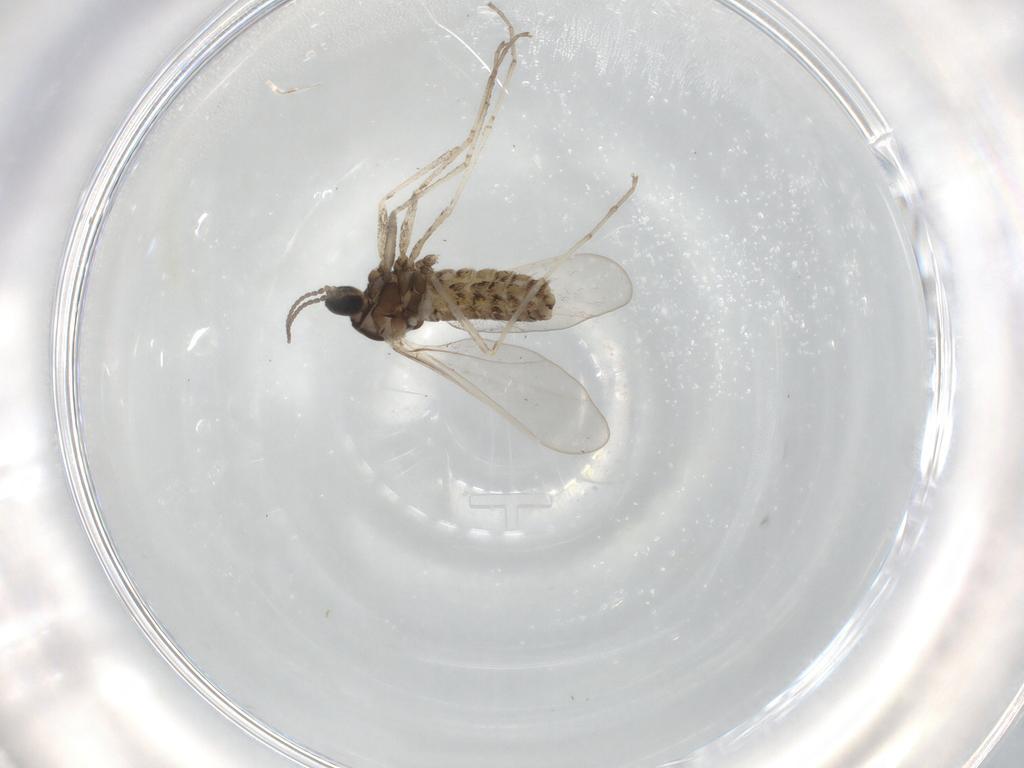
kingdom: Animalia
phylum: Arthropoda
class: Insecta
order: Diptera
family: Cecidomyiidae
